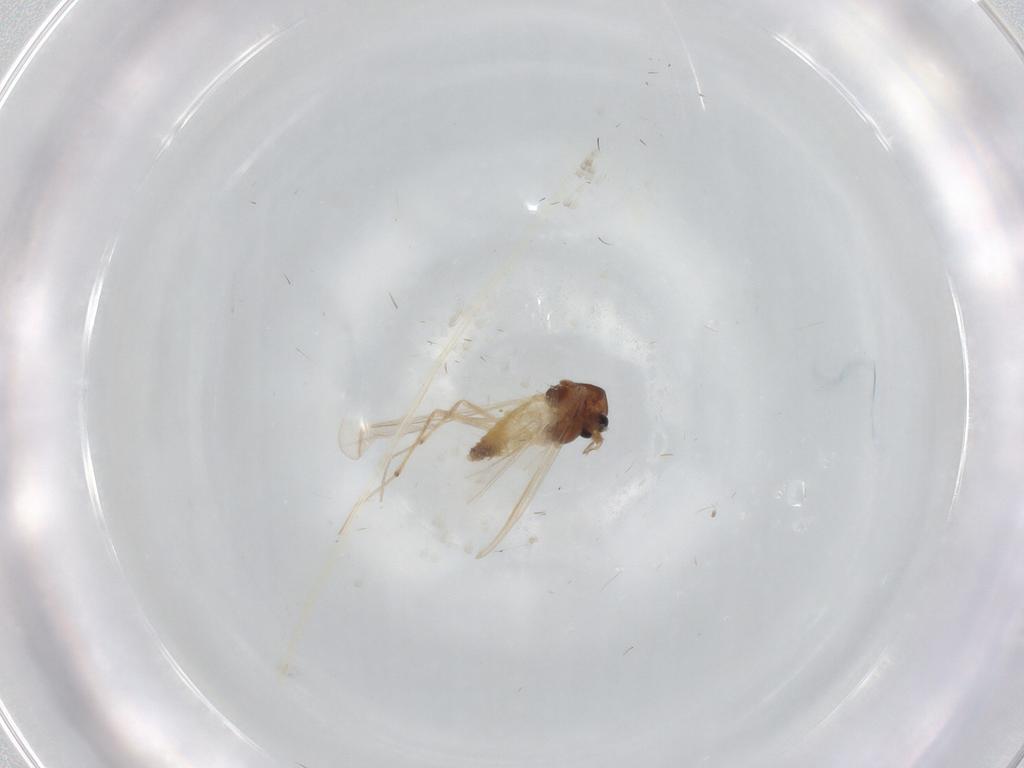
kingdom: Animalia
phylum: Arthropoda
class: Insecta
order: Diptera
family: Chironomidae
